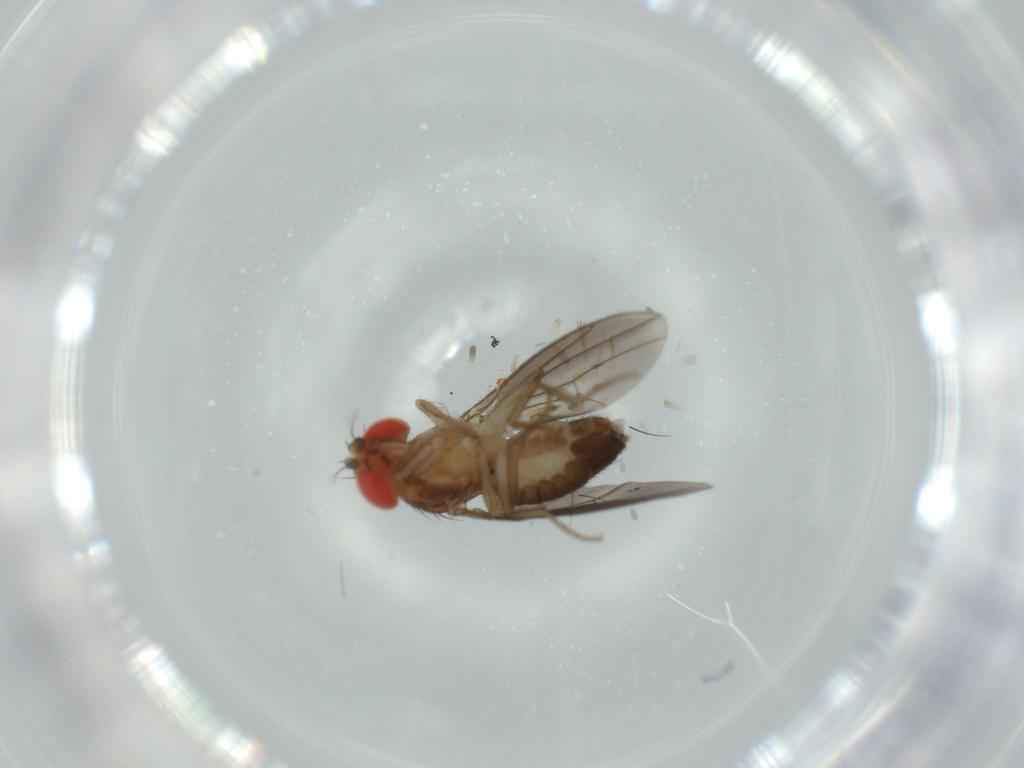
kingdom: Animalia
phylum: Arthropoda
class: Insecta
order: Diptera
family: Drosophilidae
